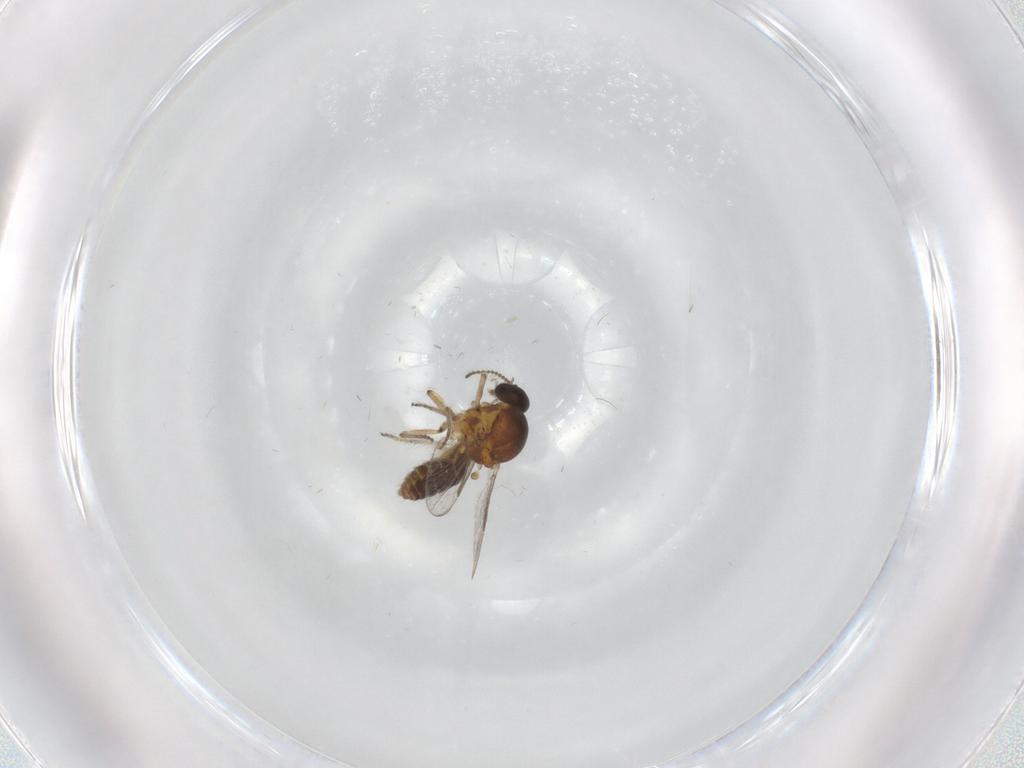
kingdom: Animalia
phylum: Arthropoda
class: Insecta
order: Diptera
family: Ceratopogonidae
